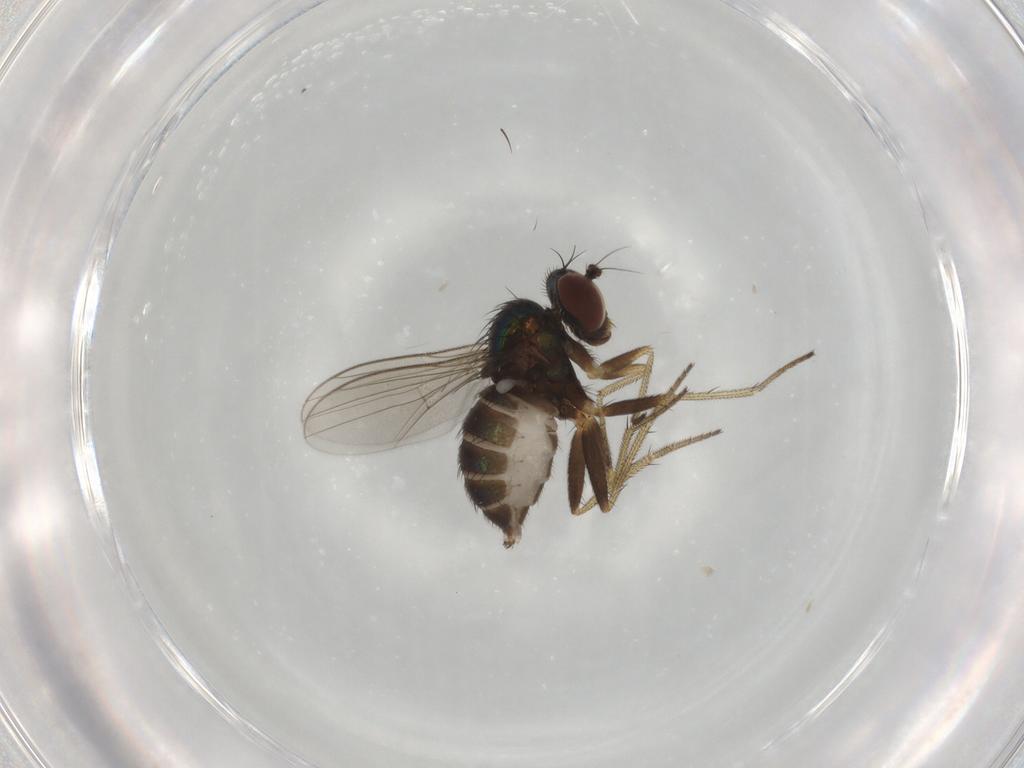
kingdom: Animalia
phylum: Arthropoda
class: Insecta
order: Diptera
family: Dolichopodidae
